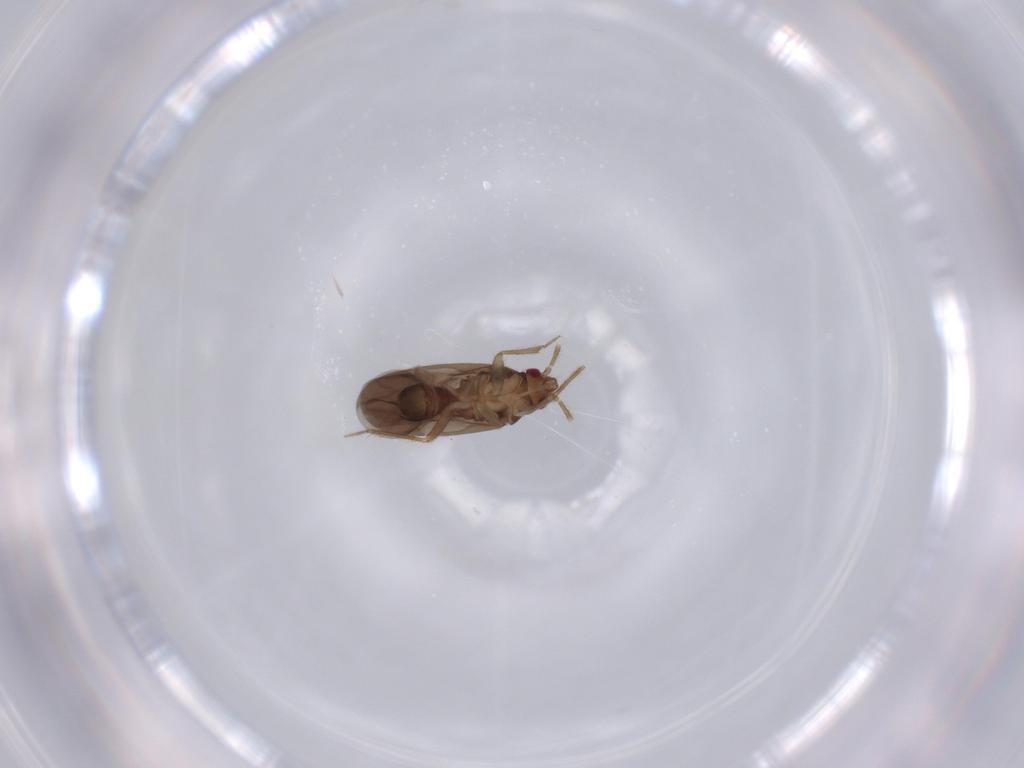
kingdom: Animalia
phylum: Arthropoda
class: Insecta
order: Hemiptera
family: Ceratocombidae
